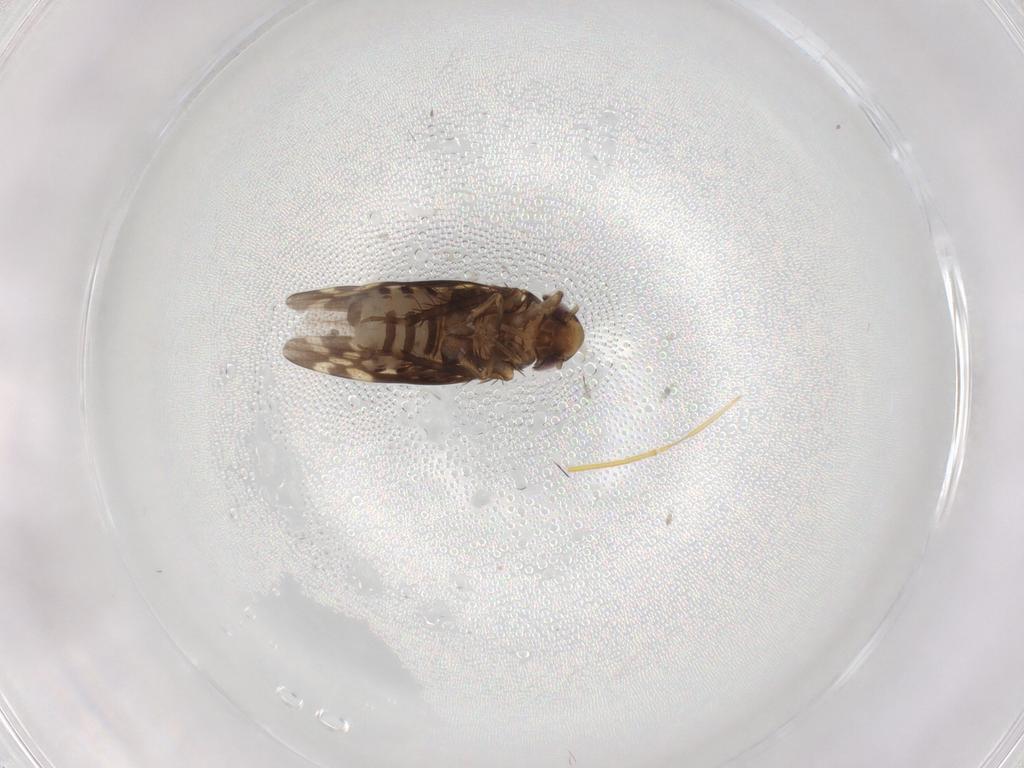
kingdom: Animalia
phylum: Arthropoda
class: Insecta
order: Hemiptera
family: Cicadellidae
